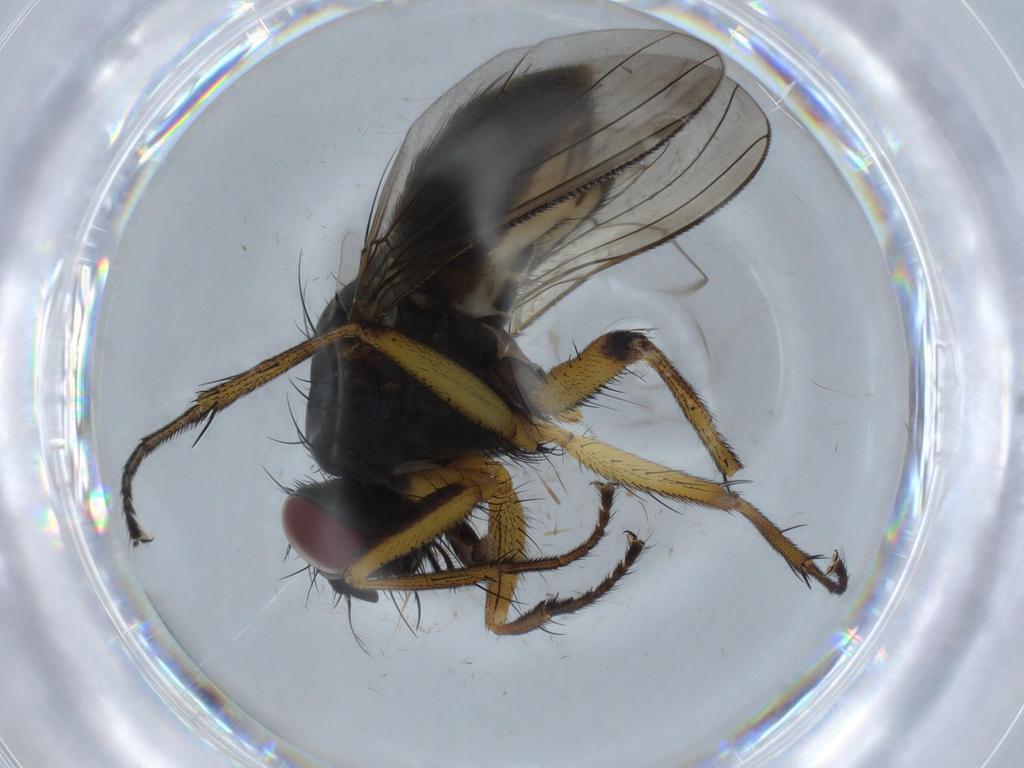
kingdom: Animalia
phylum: Arthropoda
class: Insecta
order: Diptera
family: Muscidae
